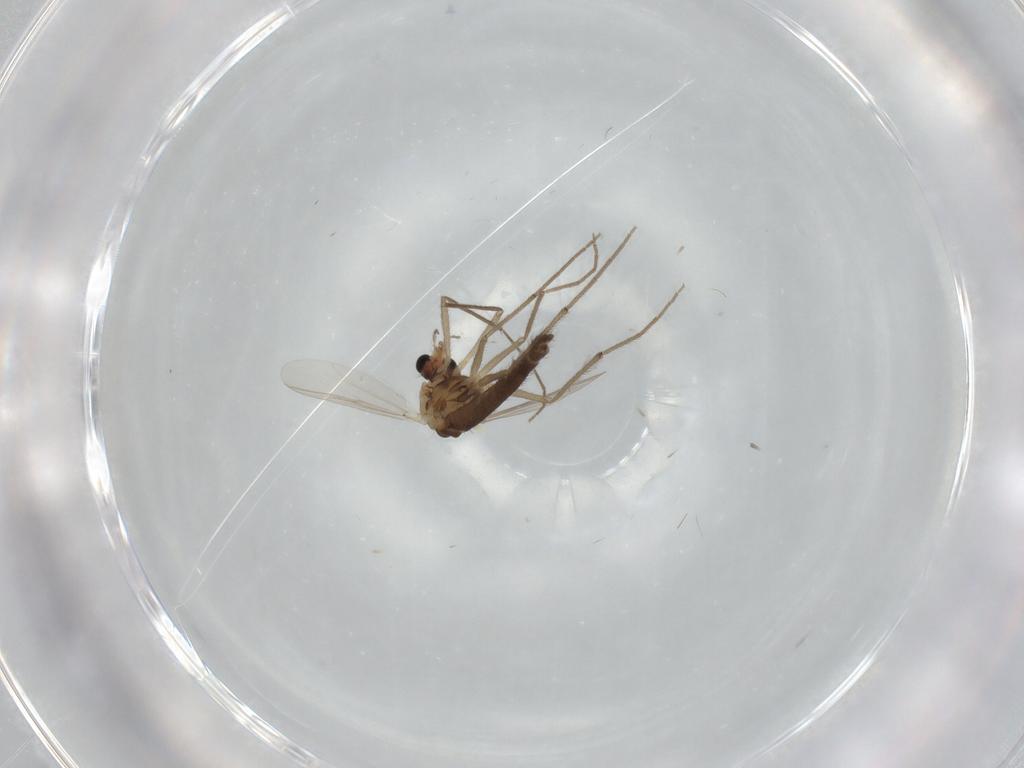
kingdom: Animalia
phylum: Arthropoda
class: Insecta
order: Diptera
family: Chironomidae
